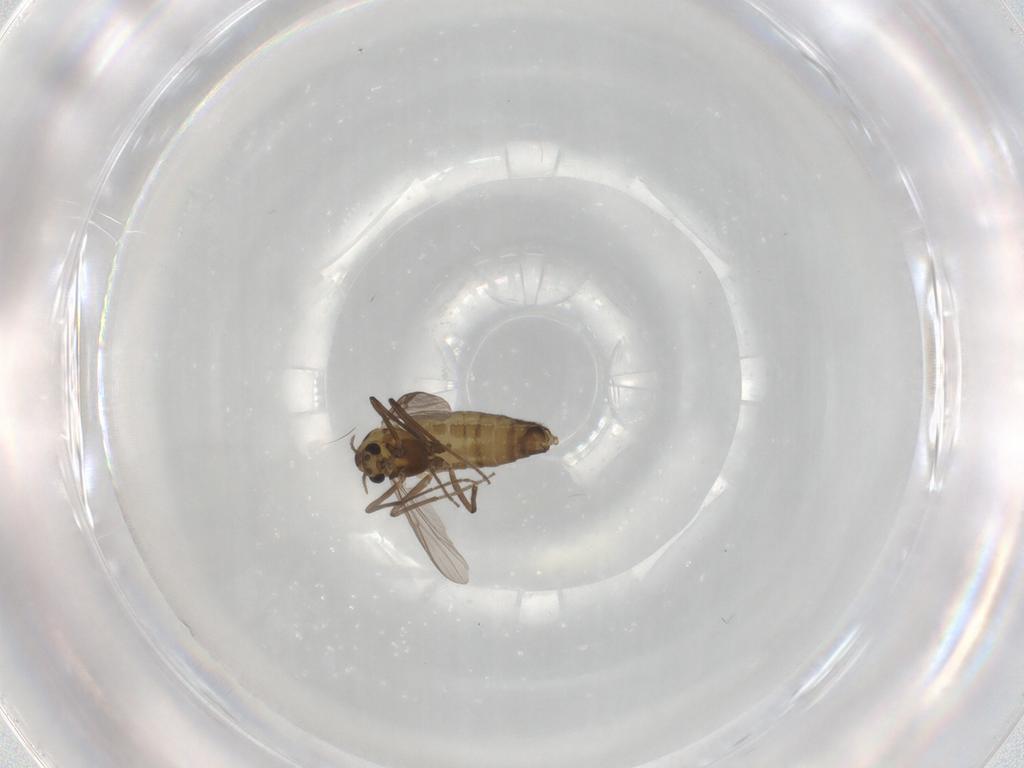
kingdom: Animalia
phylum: Arthropoda
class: Insecta
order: Diptera
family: Chironomidae
